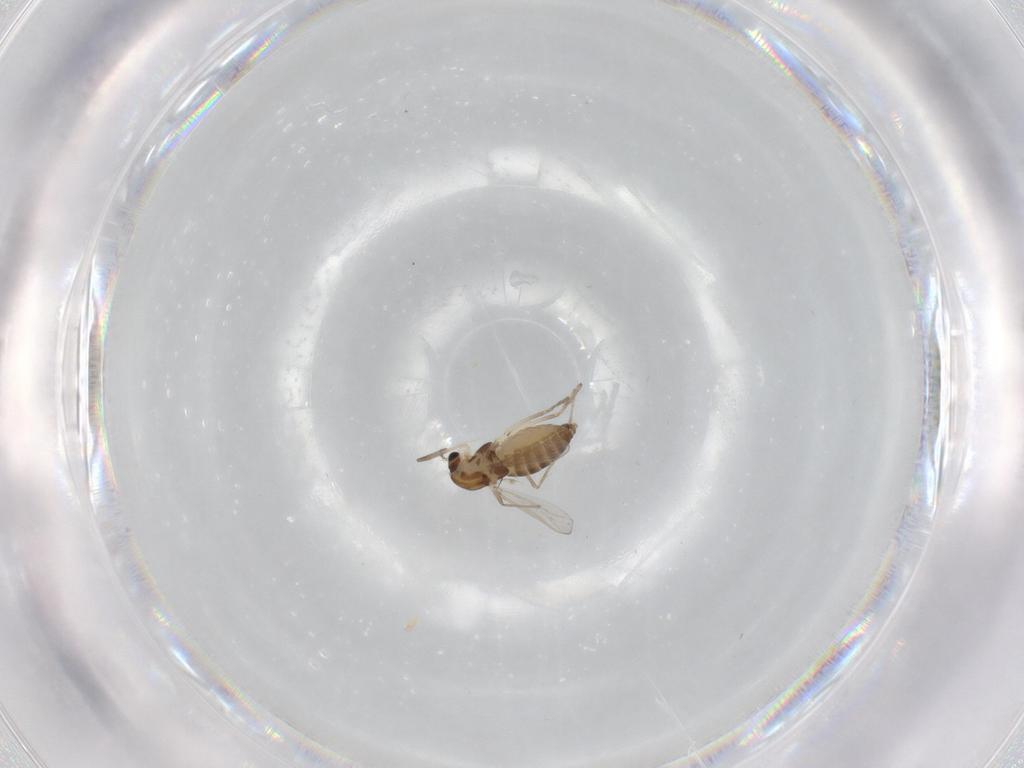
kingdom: Animalia
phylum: Arthropoda
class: Insecta
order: Diptera
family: Chironomidae
